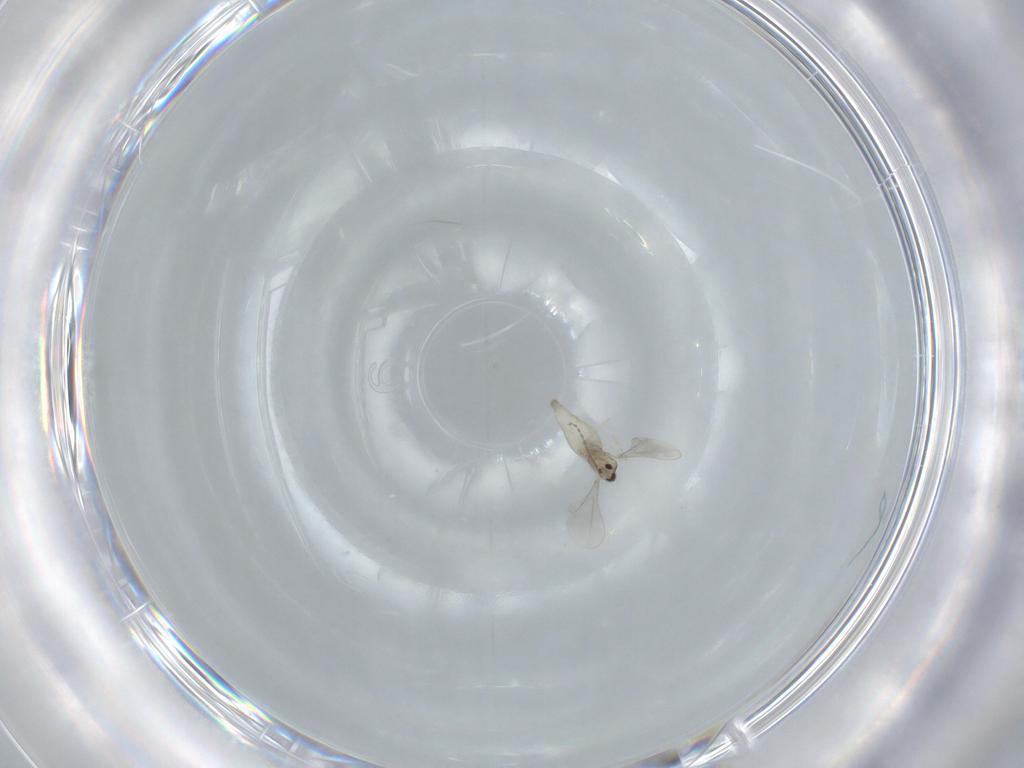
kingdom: Animalia
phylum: Arthropoda
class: Insecta
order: Diptera
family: Cecidomyiidae
